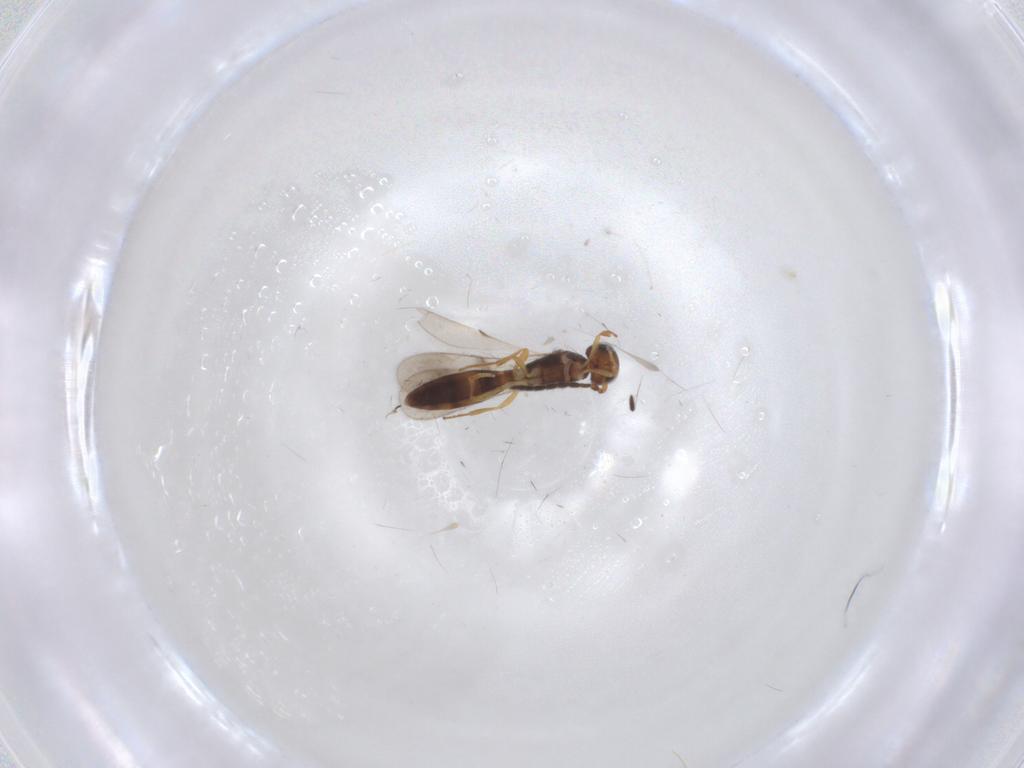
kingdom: Animalia
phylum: Arthropoda
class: Insecta
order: Hymenoptera
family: Scelionidae
